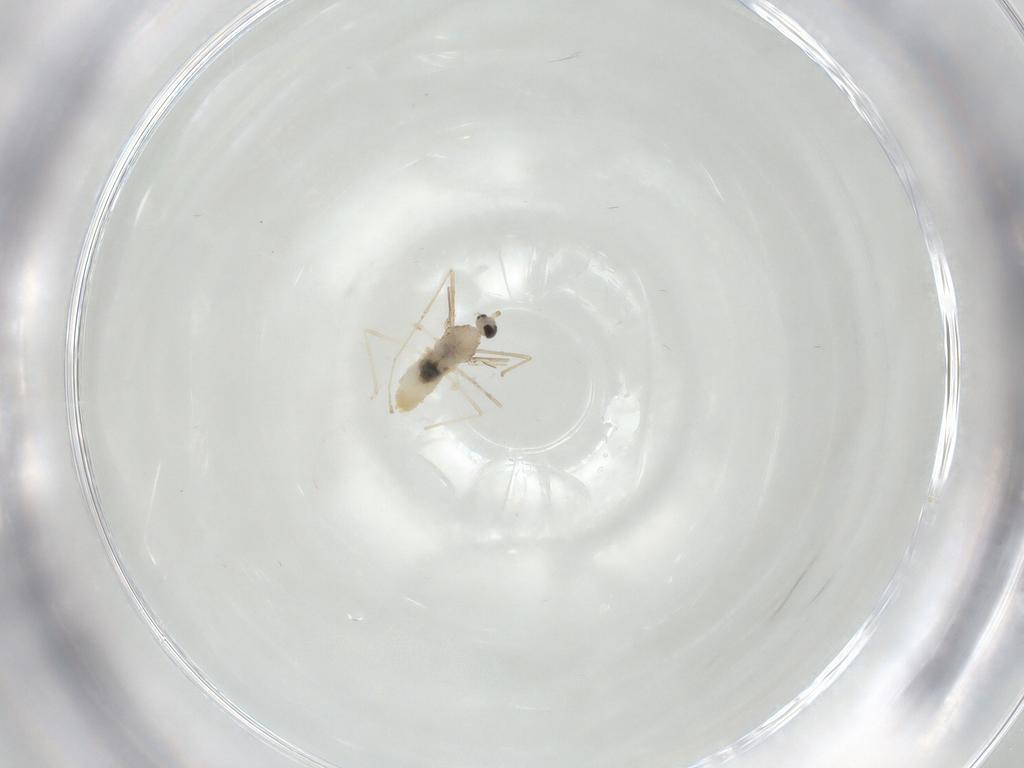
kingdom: Animalia
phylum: Arthropoda
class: Insecta
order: Diptera
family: Cecidomyiidae
